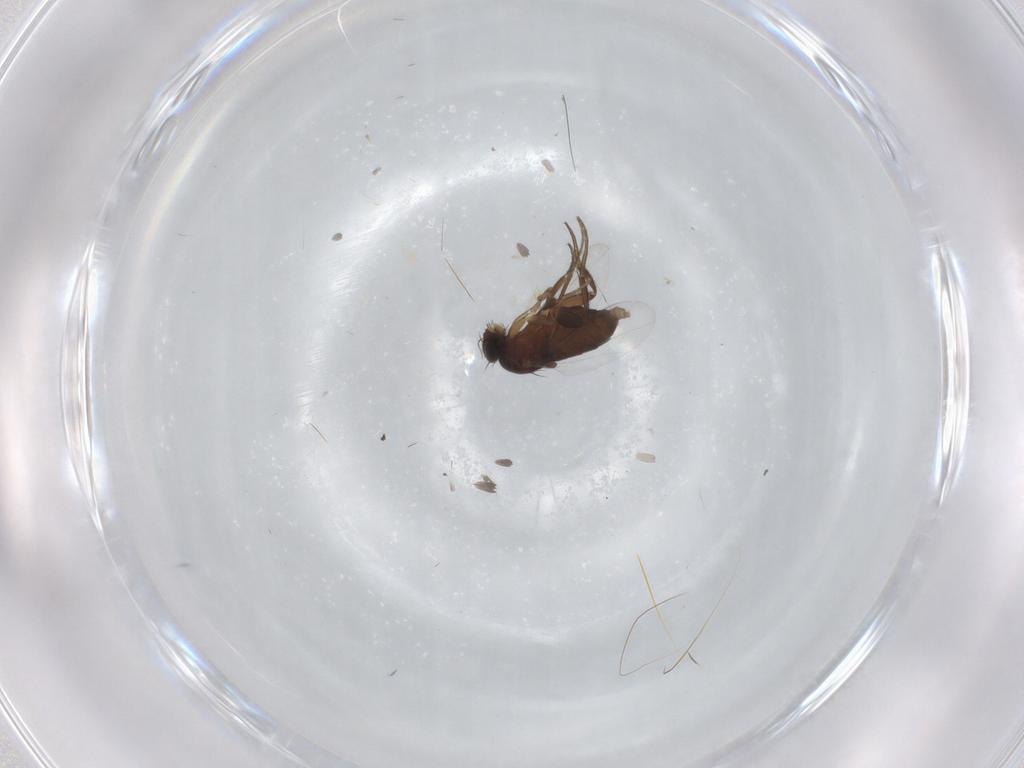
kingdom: Animalia
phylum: Arthropoda
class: Insecta
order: Diptera
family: Phoridae
